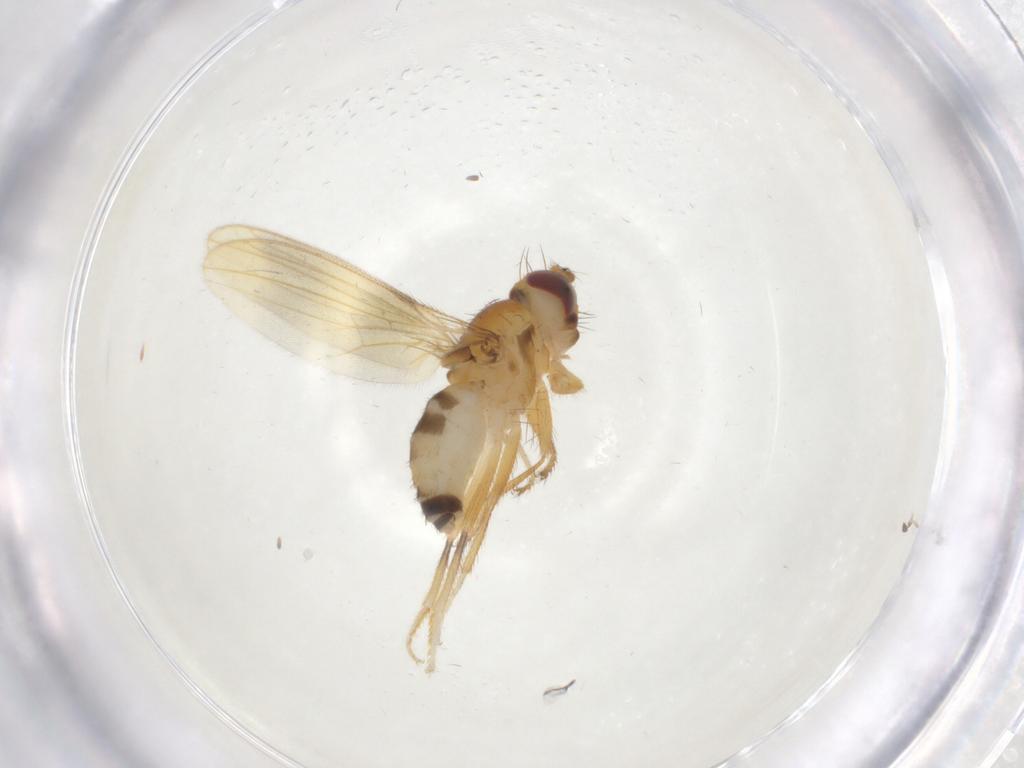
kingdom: Animalia
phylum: Arthropoda
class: Insecta
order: Diptera
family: Periscelididae
